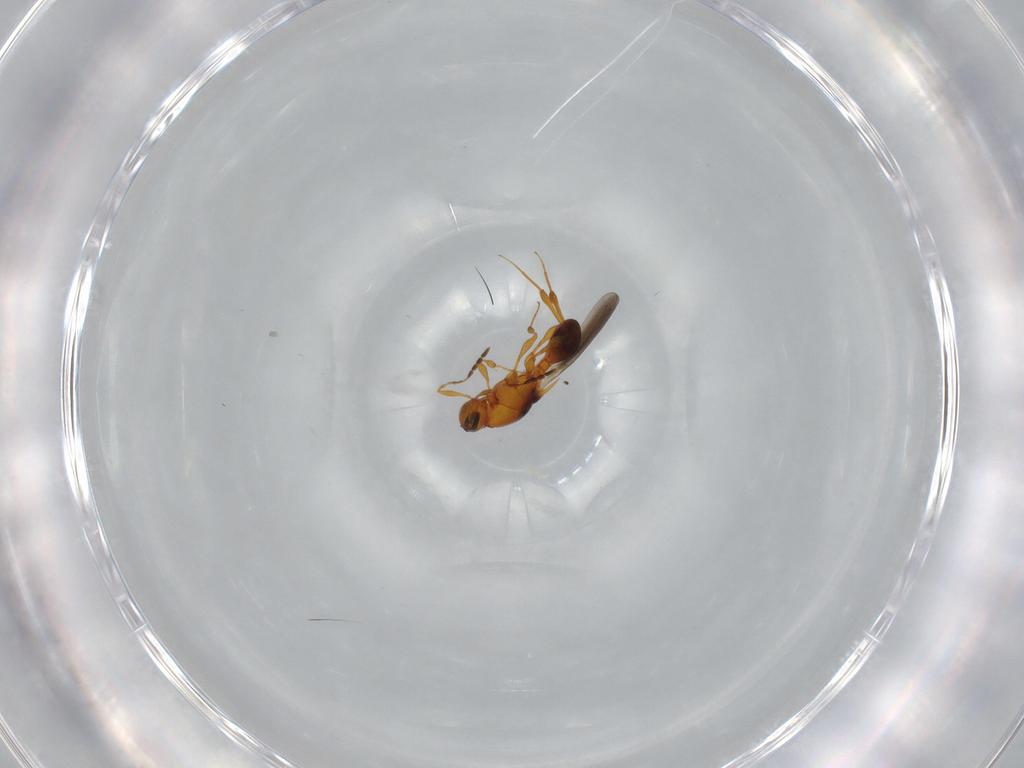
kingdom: Animalia
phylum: Arthropoda
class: Insecta
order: Hymenoptera
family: Platygastridae
